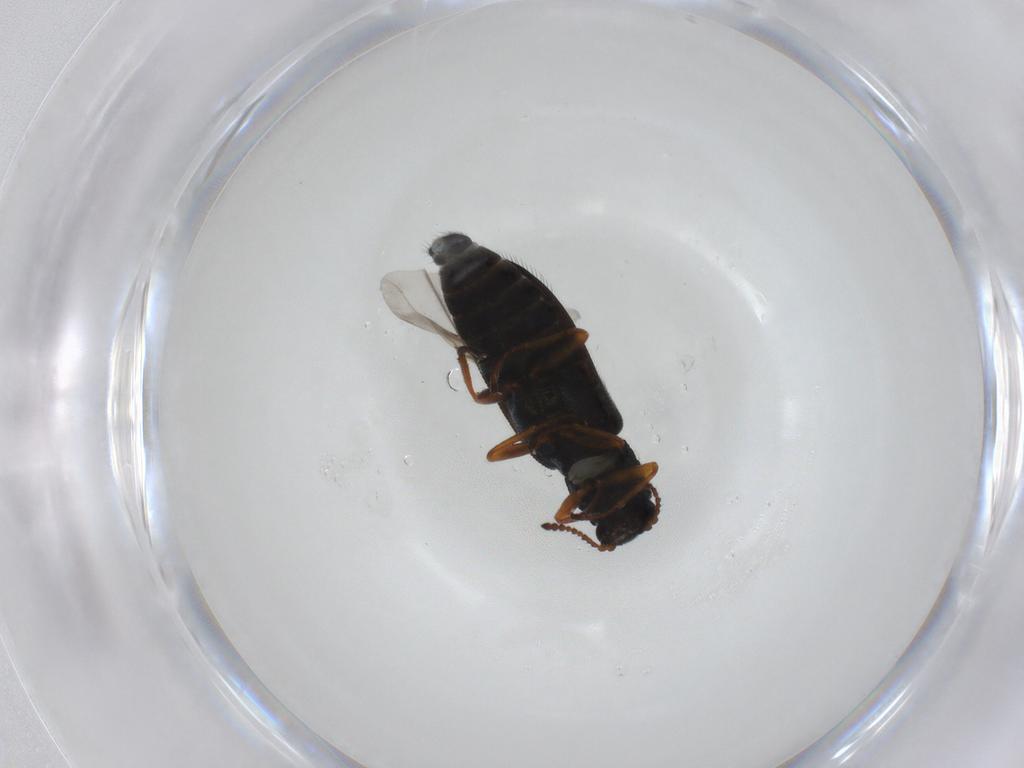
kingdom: Animalia
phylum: Arthropoda
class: Insecta
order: Coleoptera
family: Melyridae
